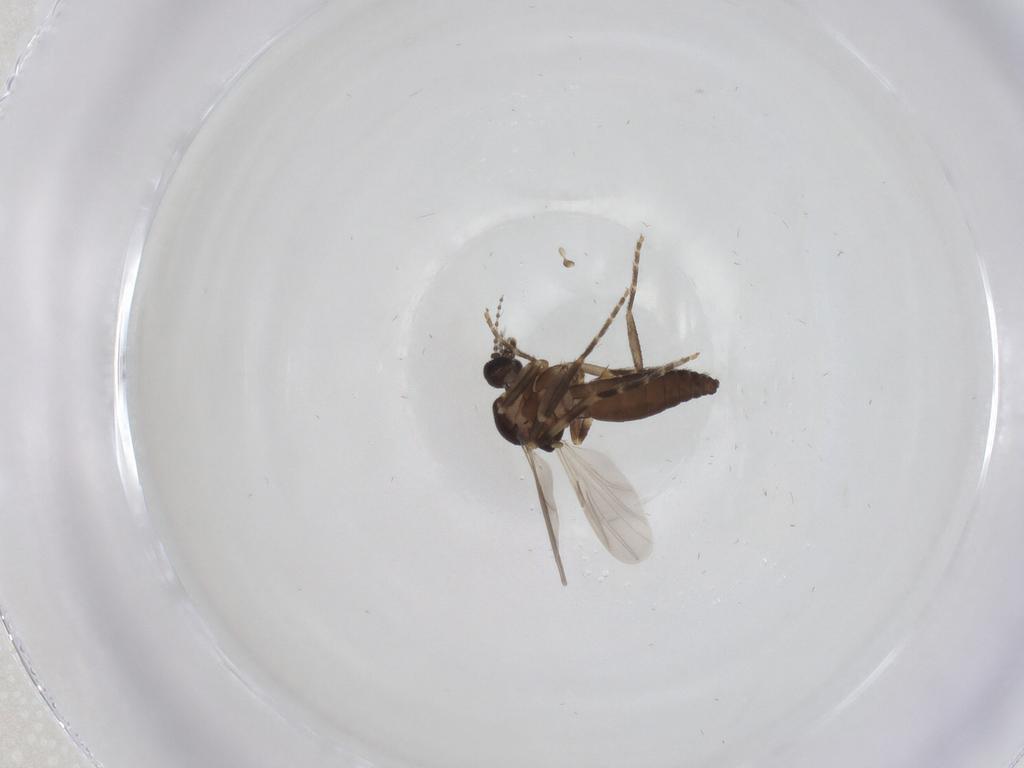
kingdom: Animalia
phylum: Arthropoda
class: Insecta
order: Diptera
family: Ceratopogonidae
